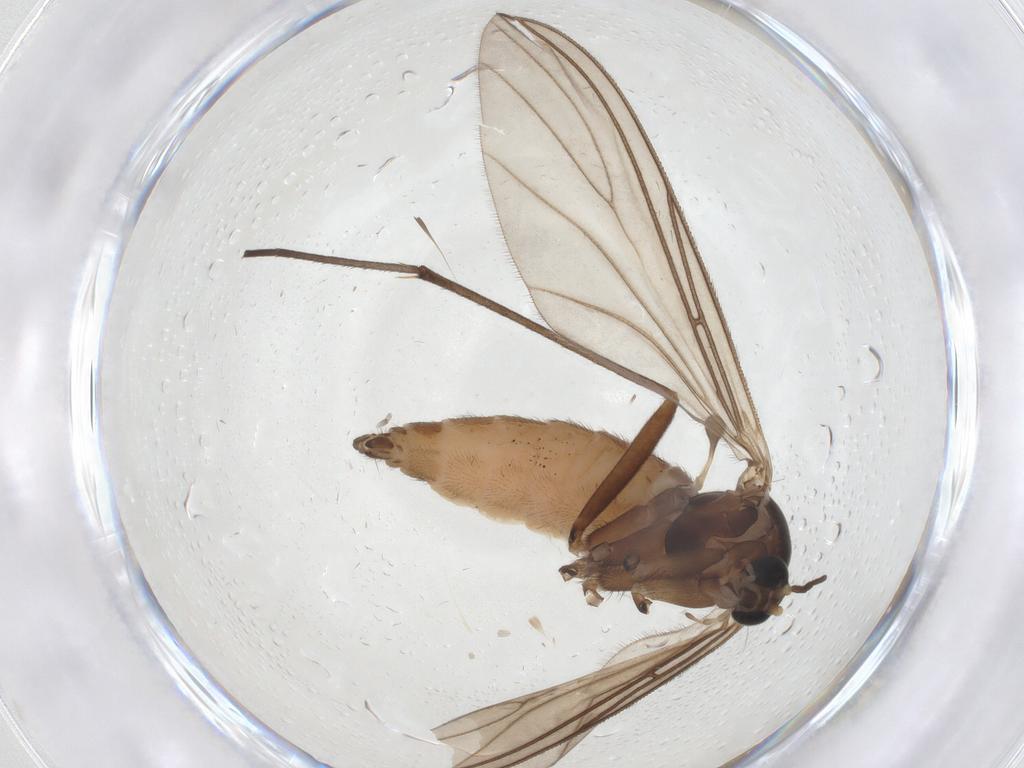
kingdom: Animalia
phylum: Arthropoda
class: Insecta
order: Diptera
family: Sciaridae
